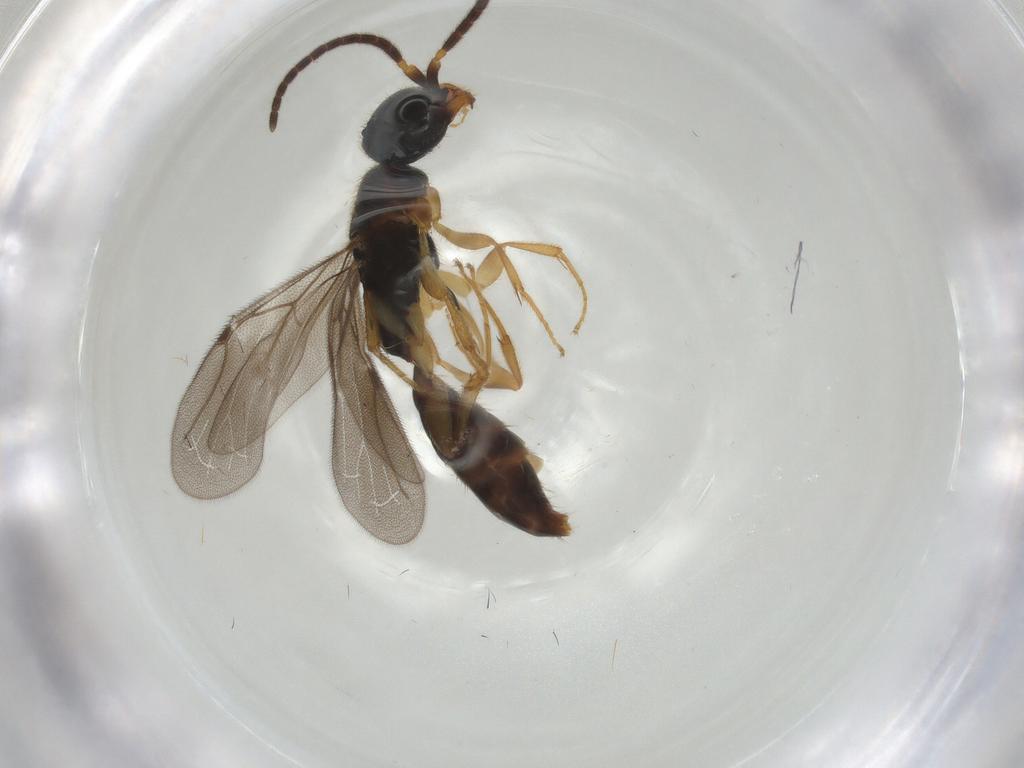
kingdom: Animalia
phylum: Arthropoda
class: Insecta
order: Hymenoptera
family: Bethylidae
